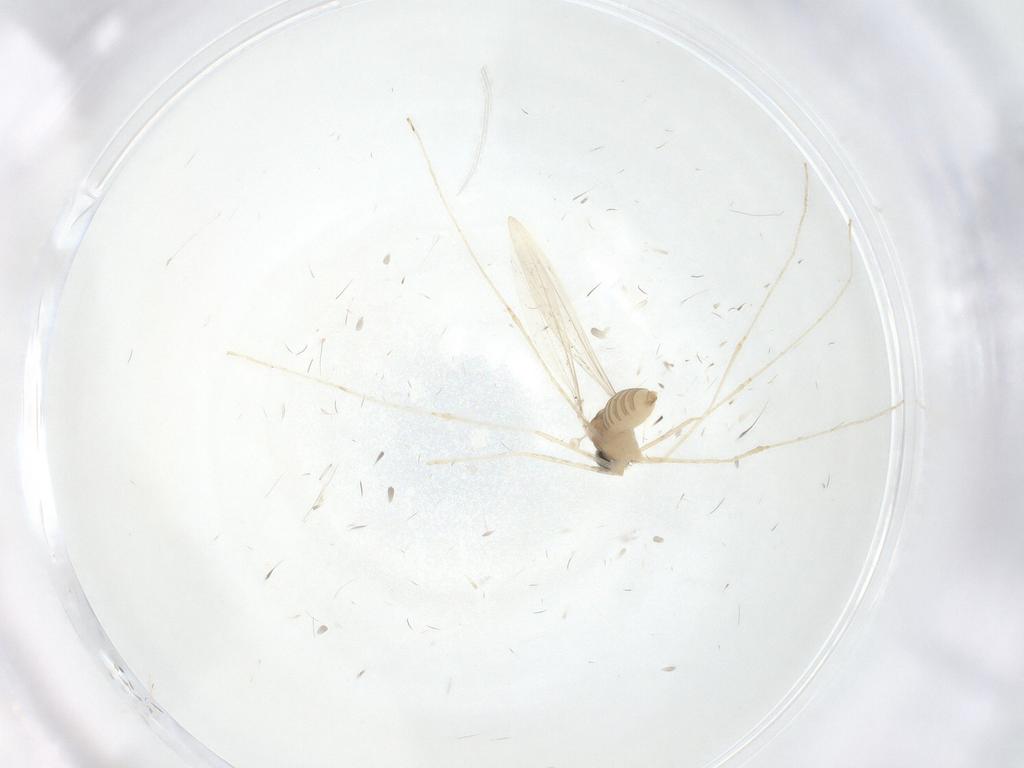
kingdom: Animalia
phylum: Arthropoda
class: Insecta
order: Diptera
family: Cecidomyiidae
